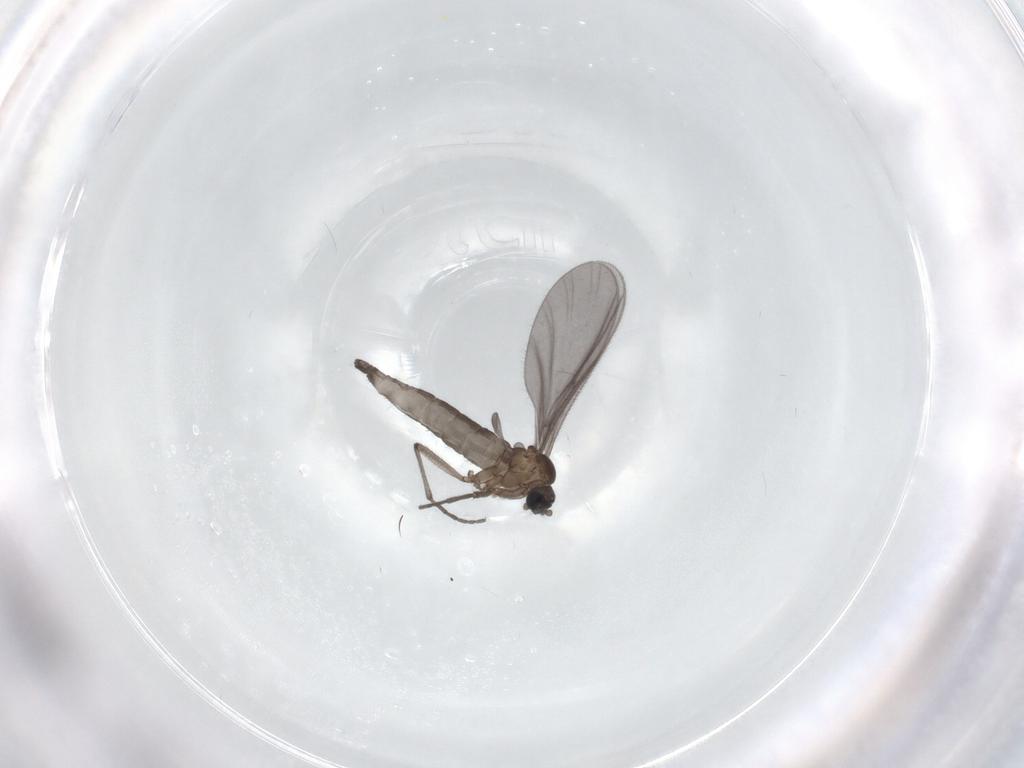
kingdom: Animalia
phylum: Arthropoda
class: Insecta
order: Diptera
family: Sciaridae
